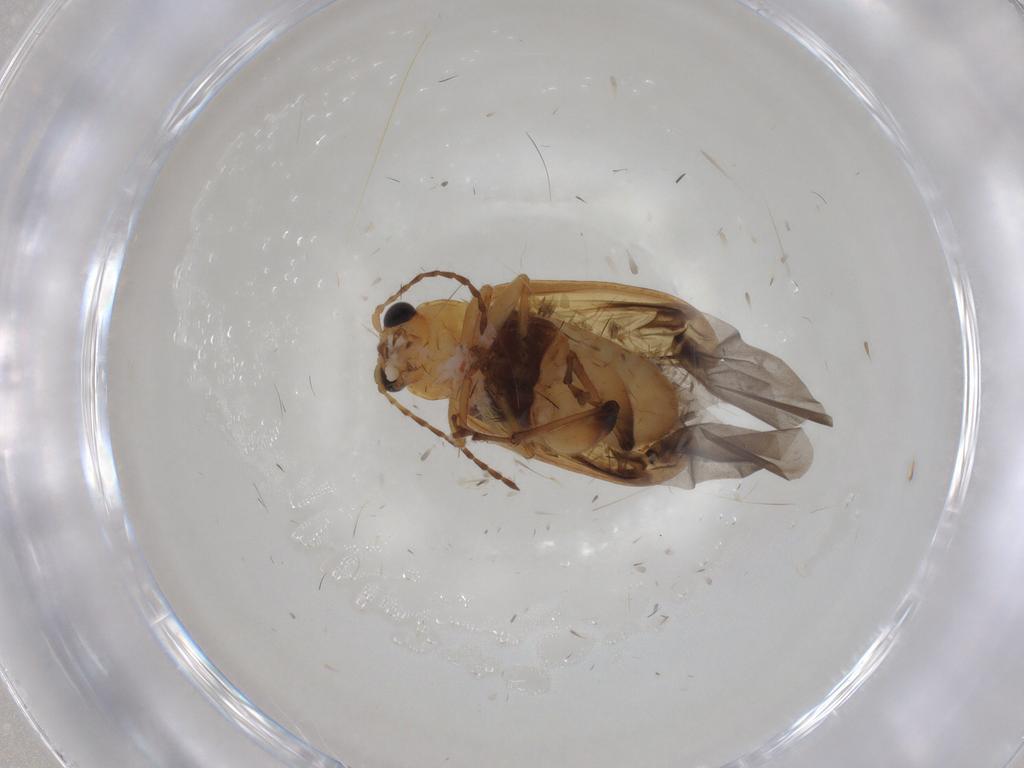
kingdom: Animalia
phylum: Arthropoda
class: Insecta
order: Coleoptera
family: Chrysomelidae
